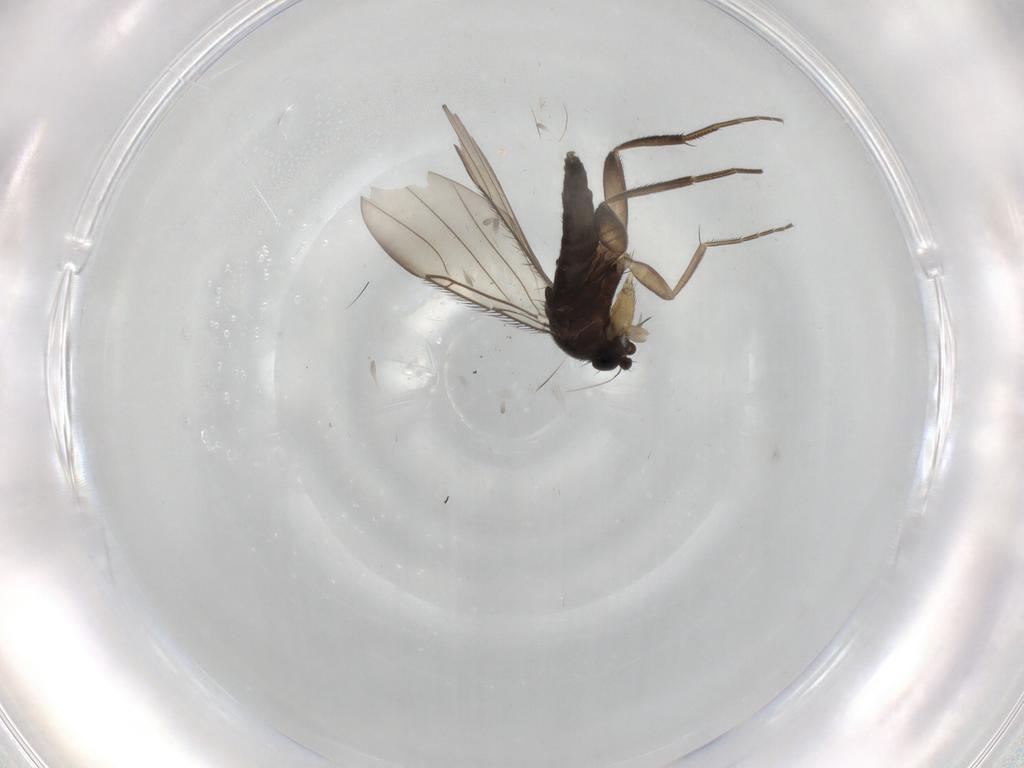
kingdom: Animalia
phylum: Arthropoda
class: Insecta
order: Diptera
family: Phoridae
